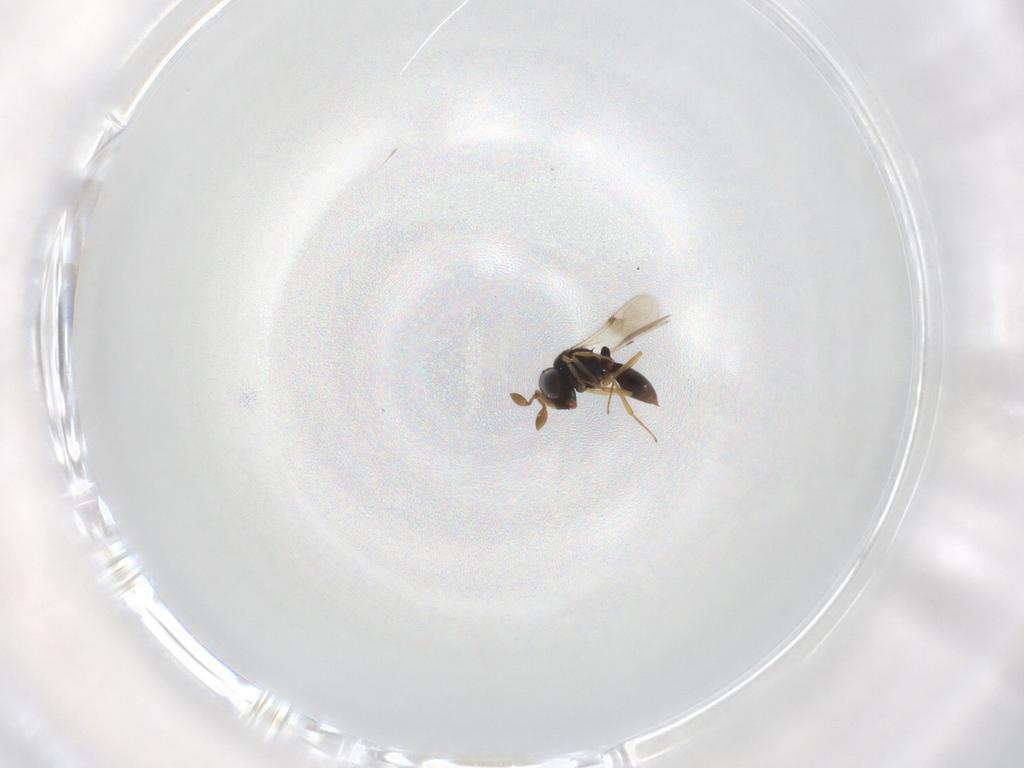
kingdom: Animalia
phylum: Arthropoda
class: Insecta
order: Hymenoptera
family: Scelionidae
